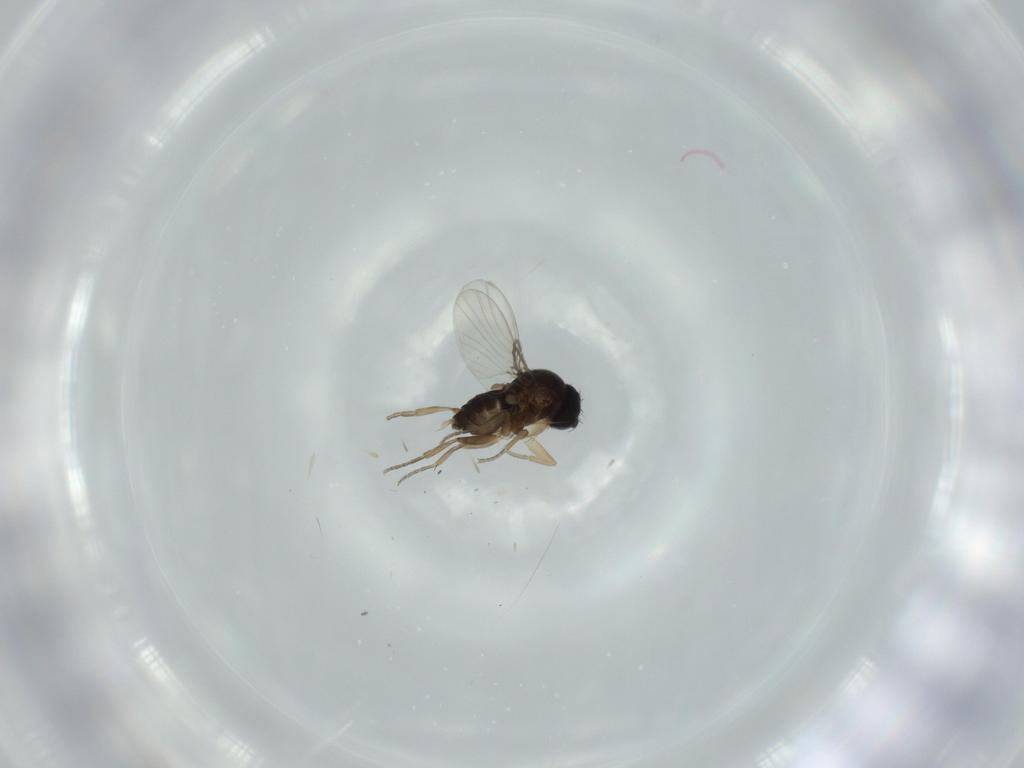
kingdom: Animalia
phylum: Arthropoda
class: Insecta
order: Diptera
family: Phoridae
